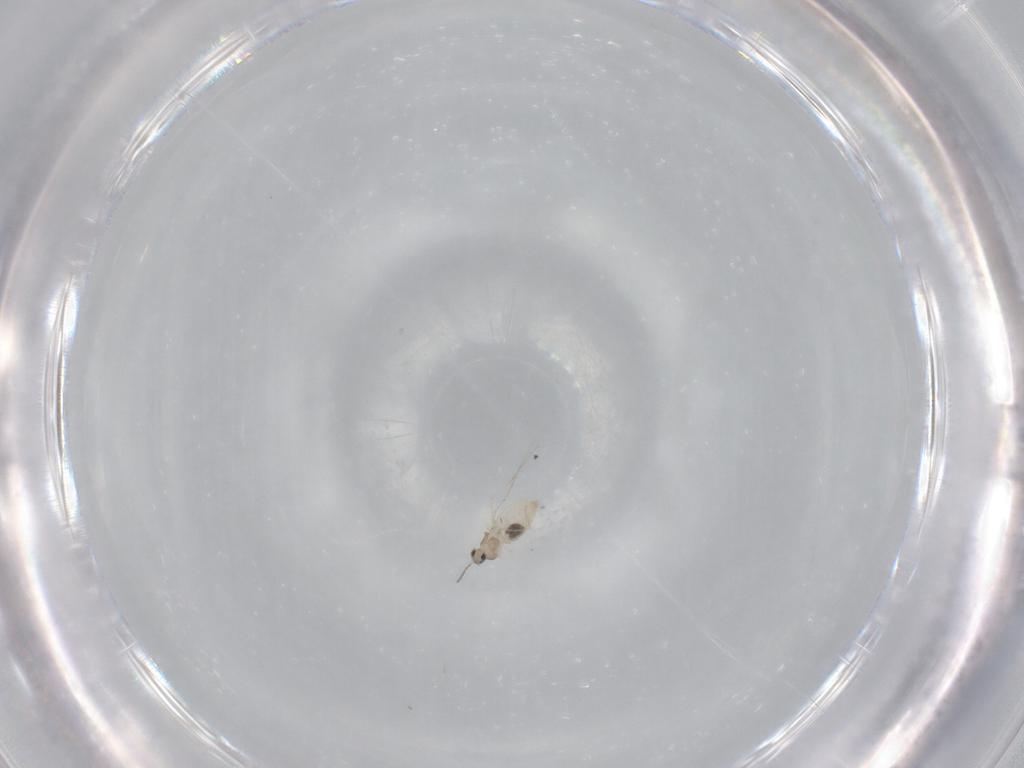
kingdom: Animalia
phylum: Arthropoda
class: Insecta
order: Diptera
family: Cecidomyiidae
